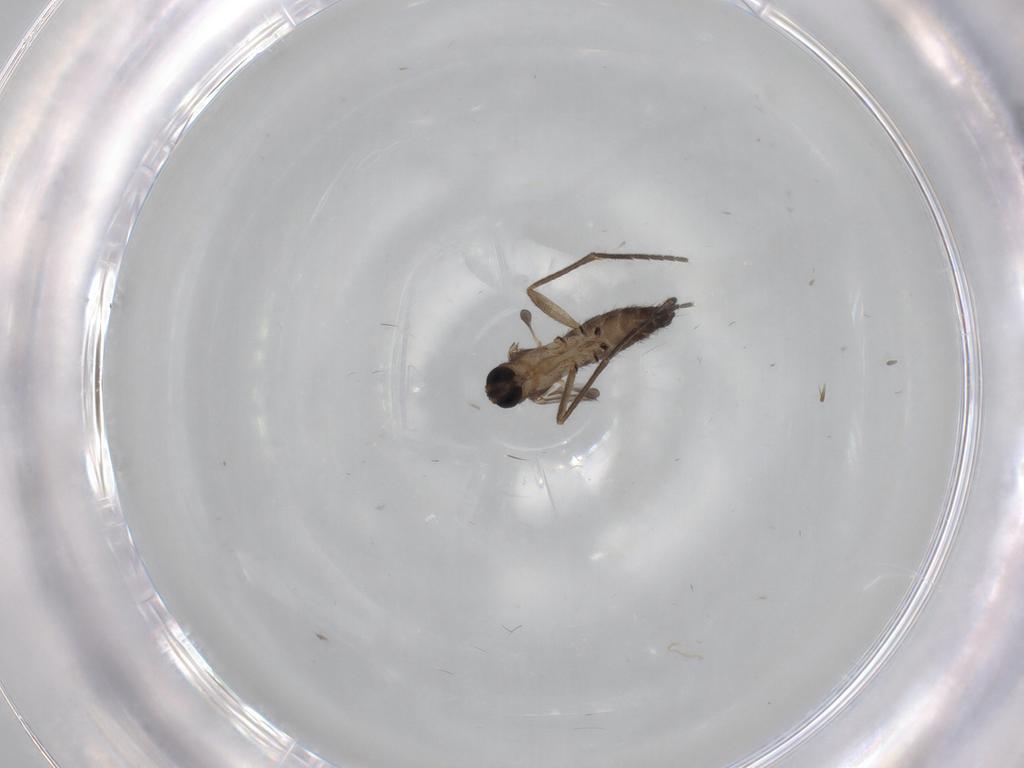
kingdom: Animalia
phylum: Arthropoda
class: Insecta
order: Diptera
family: Sciaridae
